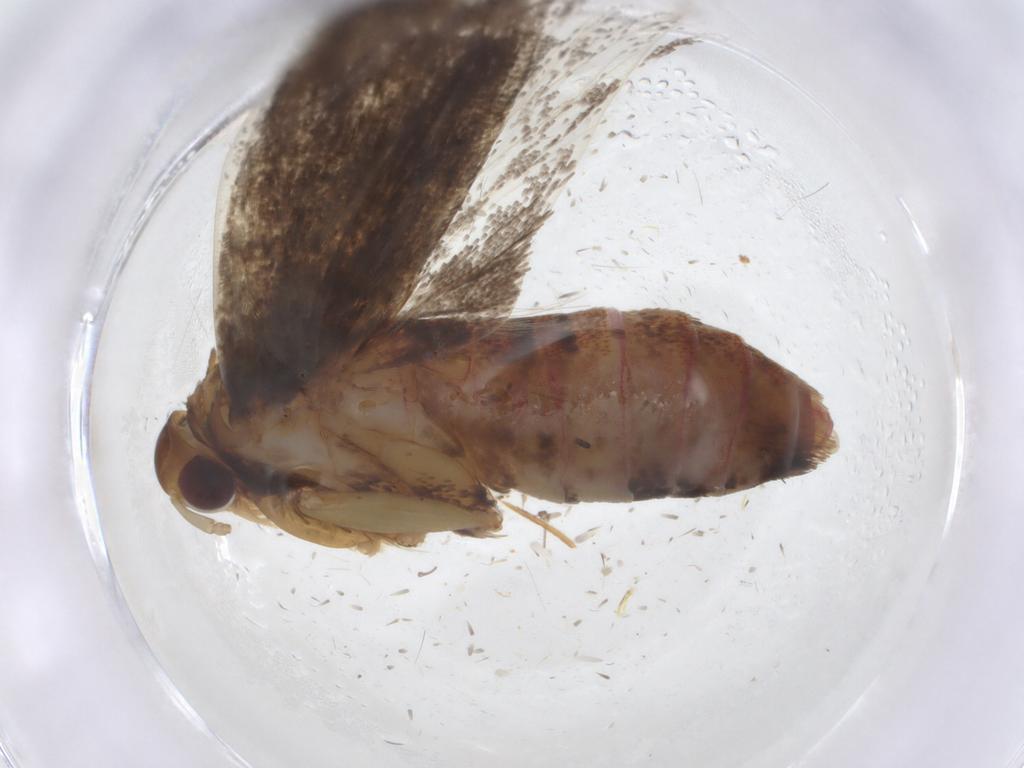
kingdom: Animalia
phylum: Arthropoda
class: Insecta
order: Lepidoptera
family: Lecithoceridae
